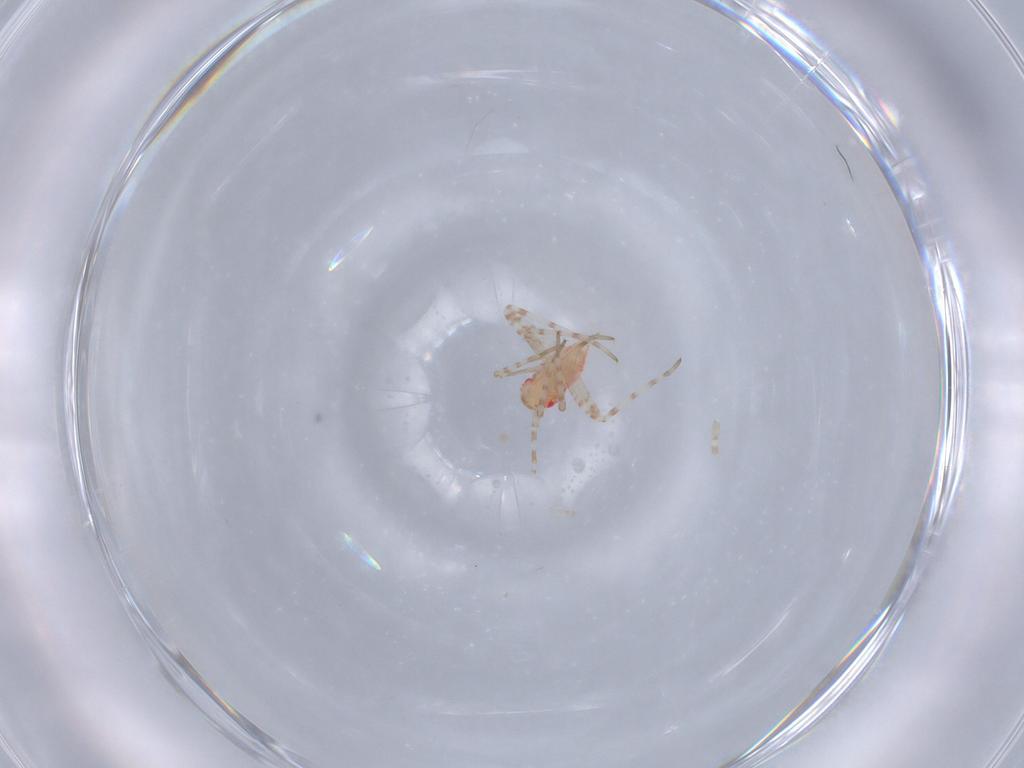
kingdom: Animalia
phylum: Arthropoda
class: Insecta
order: Hemiptera
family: Miridae
